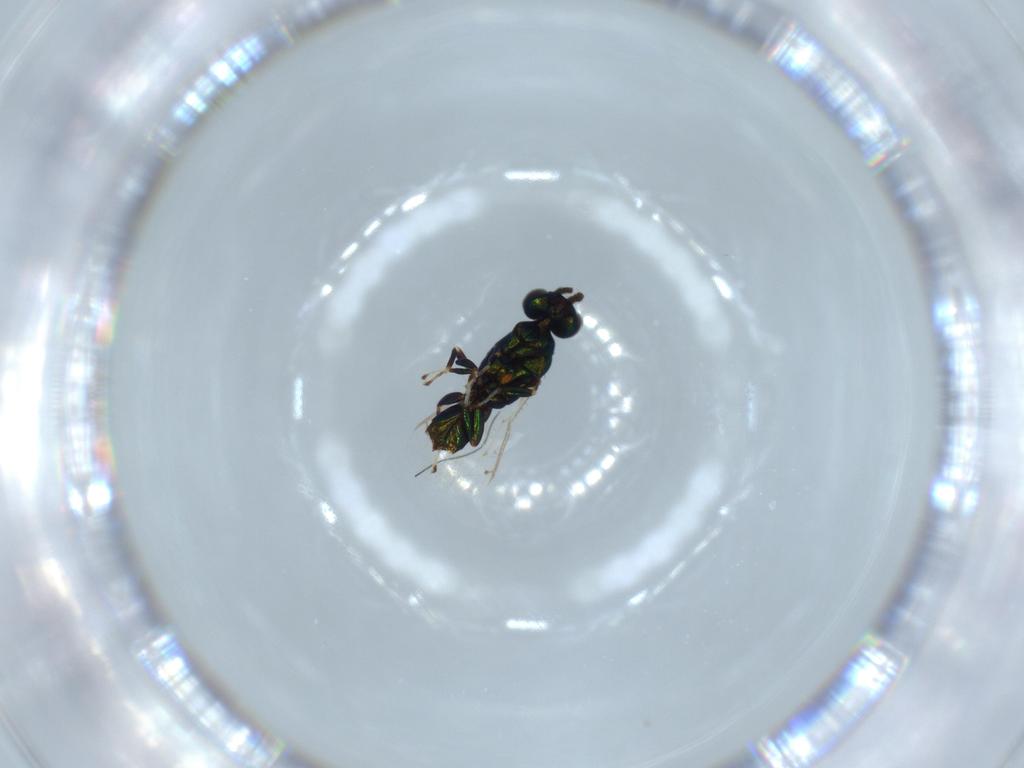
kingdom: Animalia
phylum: Arthropoda
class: Insecta
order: Hymenoptera
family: Eulophidae
